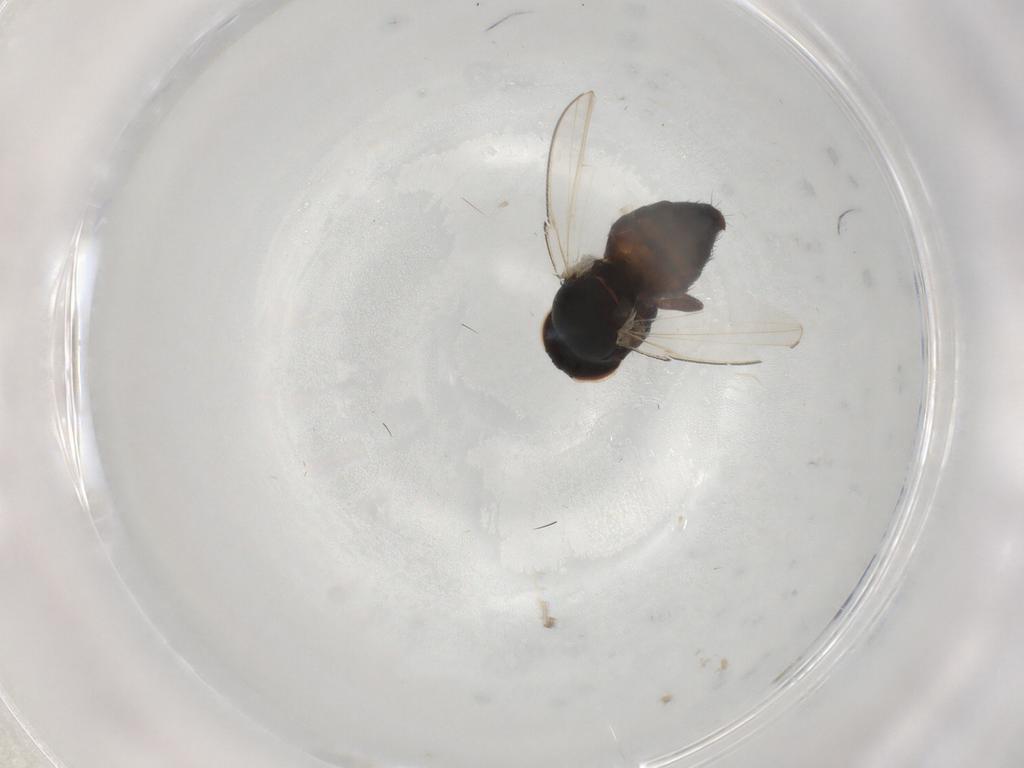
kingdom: Animalia
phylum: Arthropoda
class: Insecta
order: Diptera
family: Milichiidae
